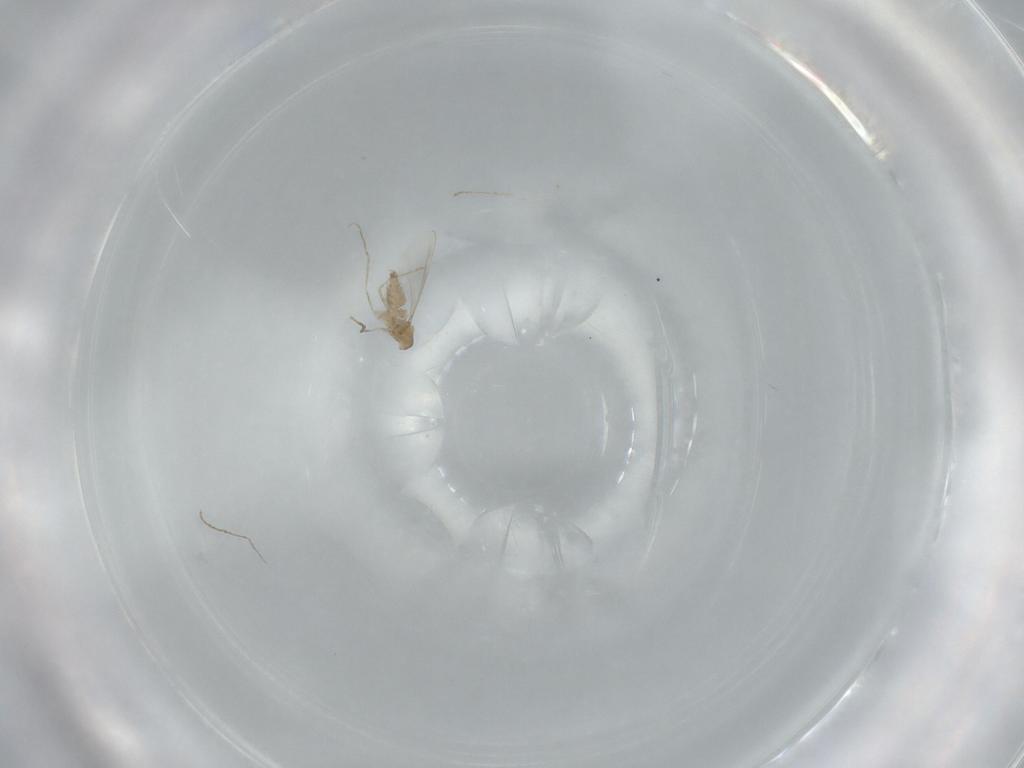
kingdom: Animalia
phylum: Arthropoda
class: Insecta
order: Diptera
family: Cecidomyiidae
